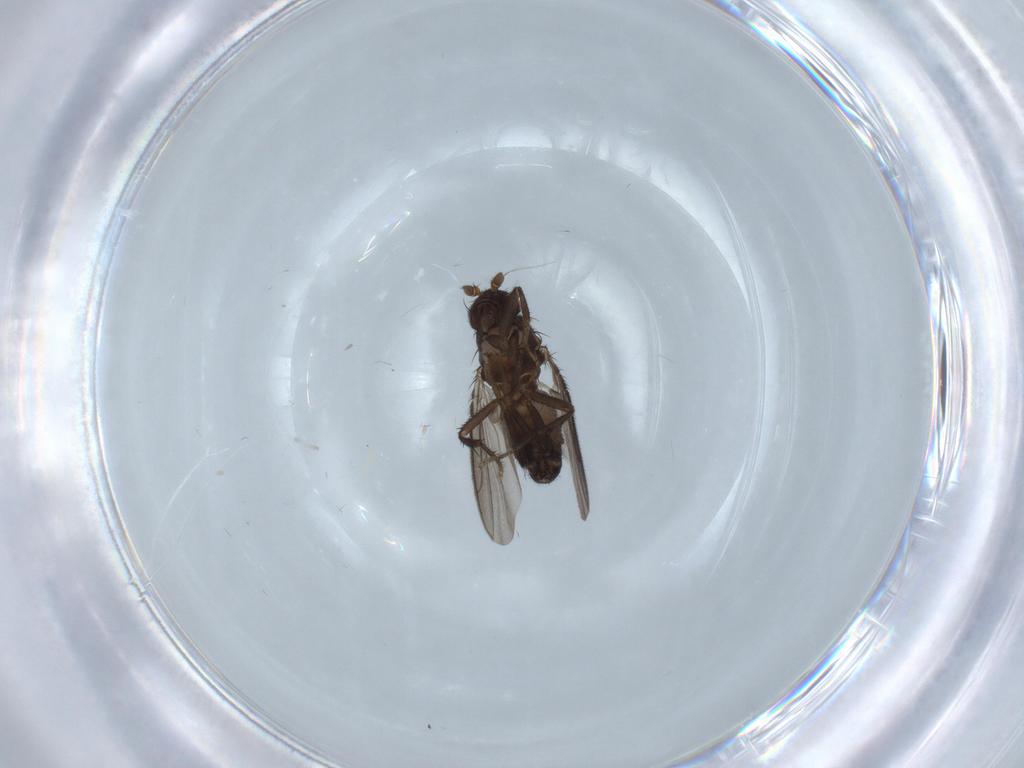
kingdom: Animalia
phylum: Arthropoda
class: Insecta
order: Diptera
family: Sphaeroceridae
